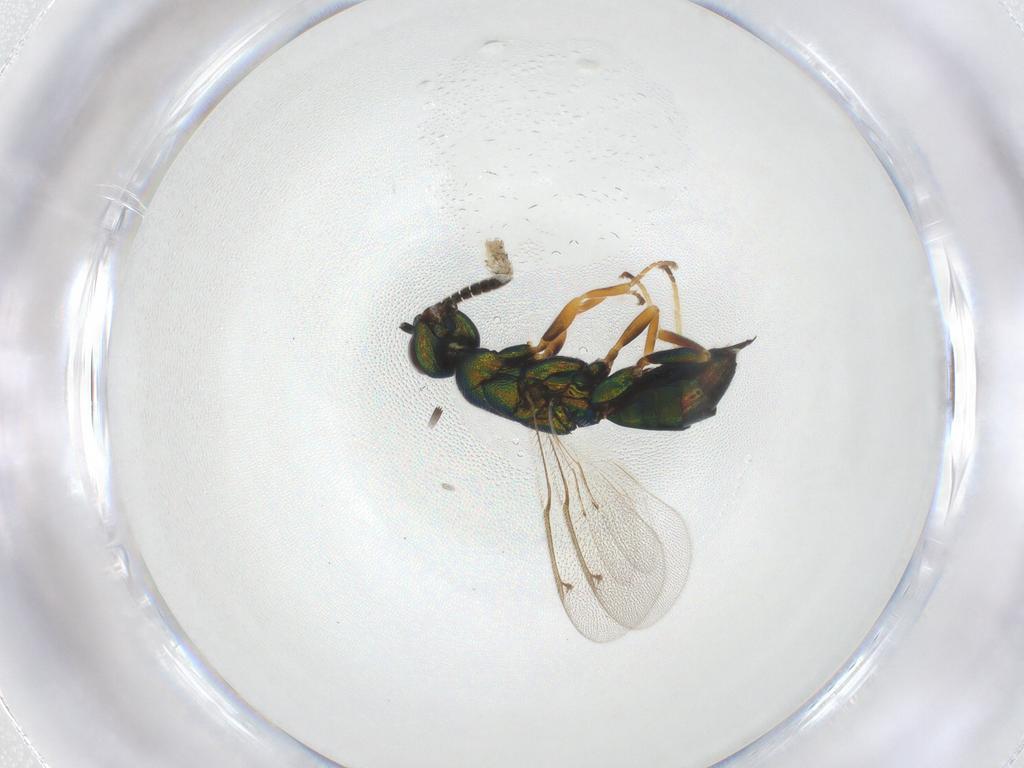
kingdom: Animalia
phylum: Arthropoda
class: Insecta
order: Hymenoptera
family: Torymidae
